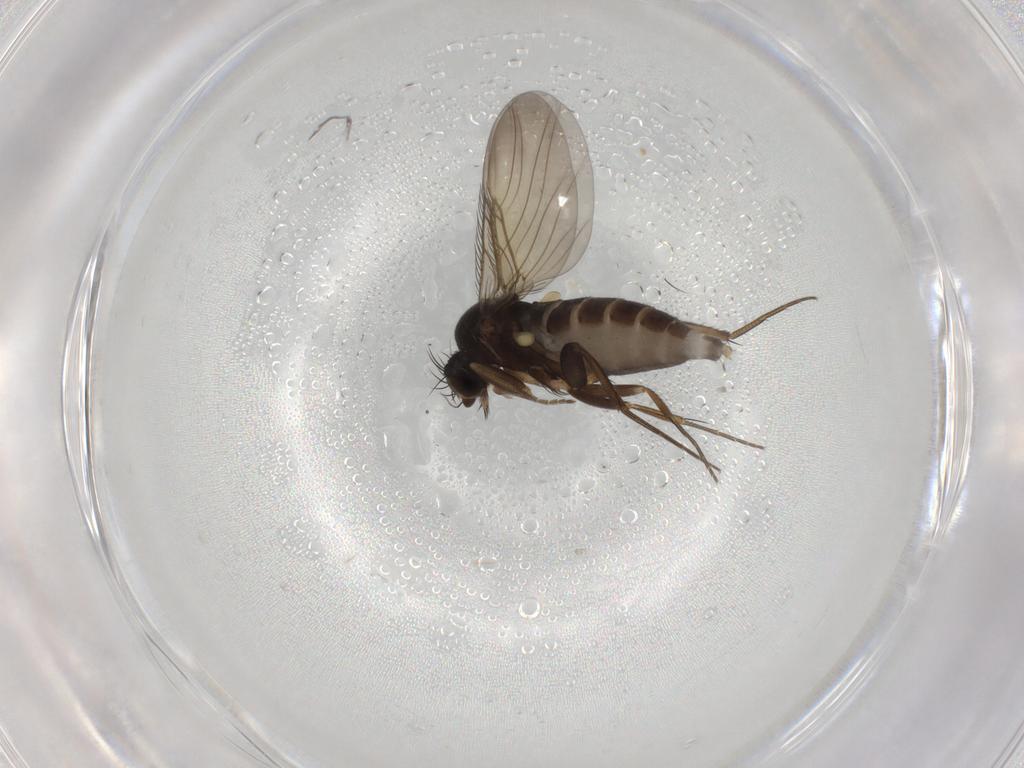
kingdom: Animalia
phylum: Arthropoda
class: Insecta
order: Diptera
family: Phoridae
